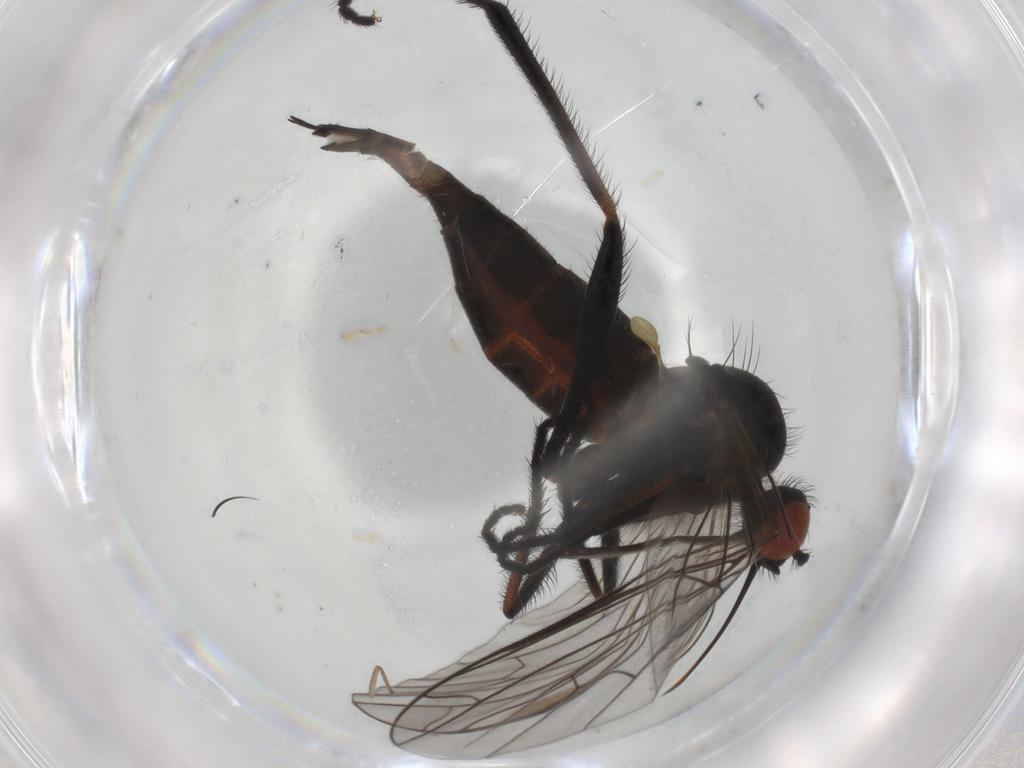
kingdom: Animalia
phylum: Arthropoda
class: Insecta
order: Diptera
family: Empididae
